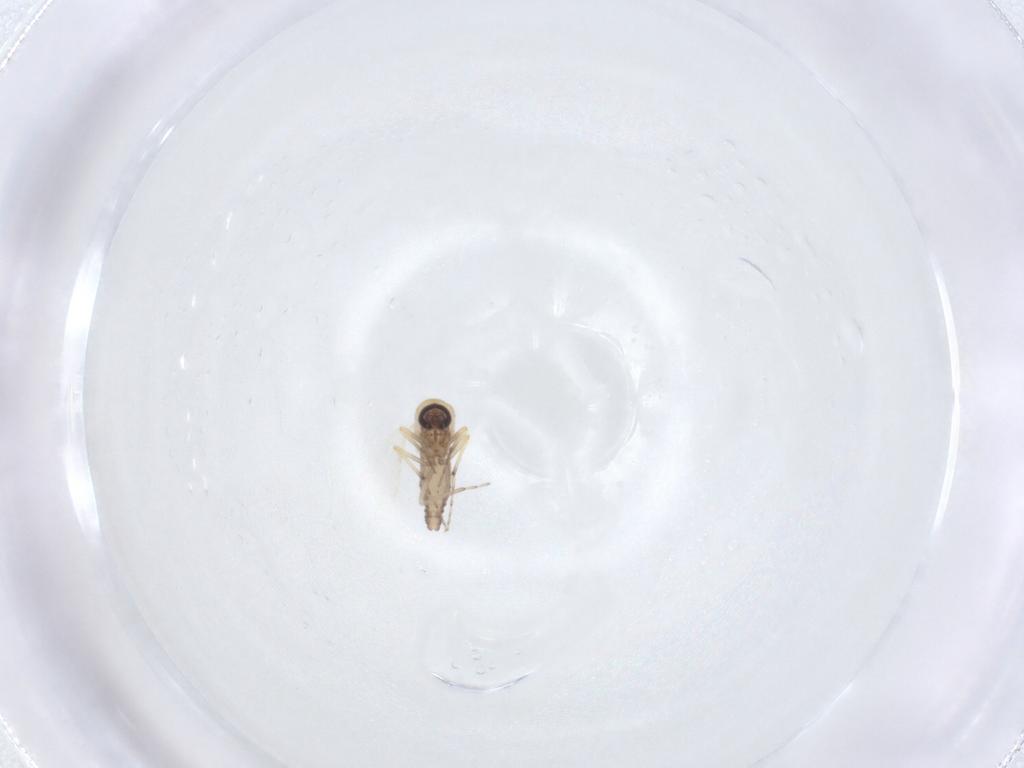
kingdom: Animalia
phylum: Arthropoda
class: Insecta
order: Diptera
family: Ceratopogonidae
